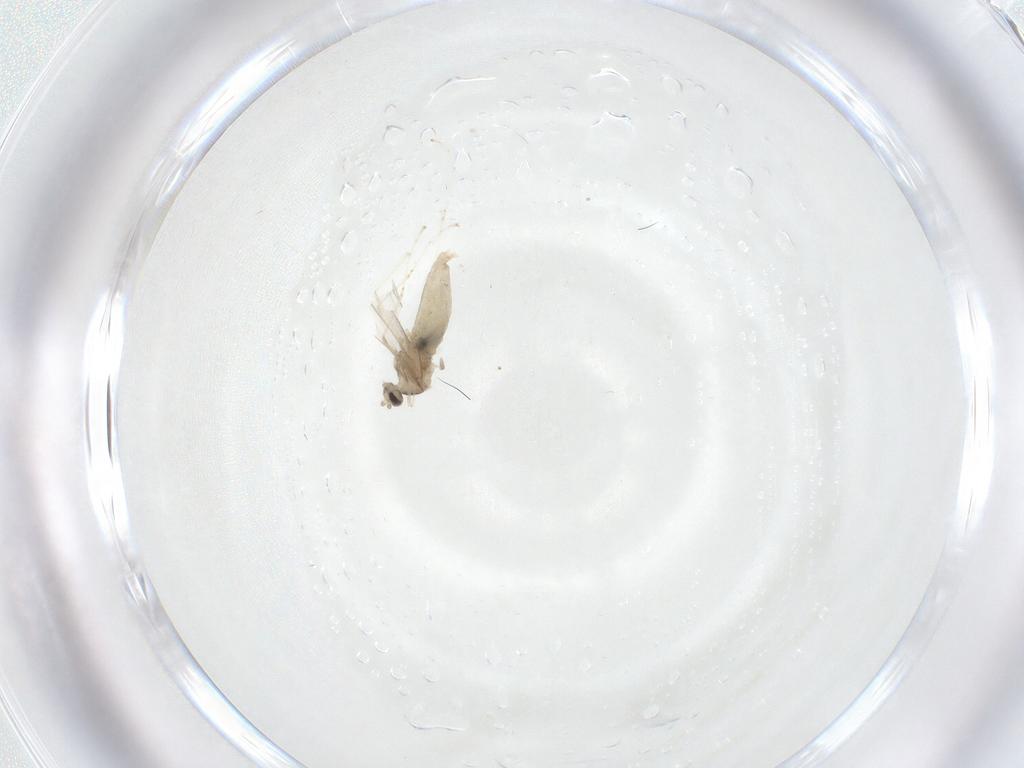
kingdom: Animalia
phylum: Arthropoda
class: Insecta
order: Diptera
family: Cecidomyiidae
